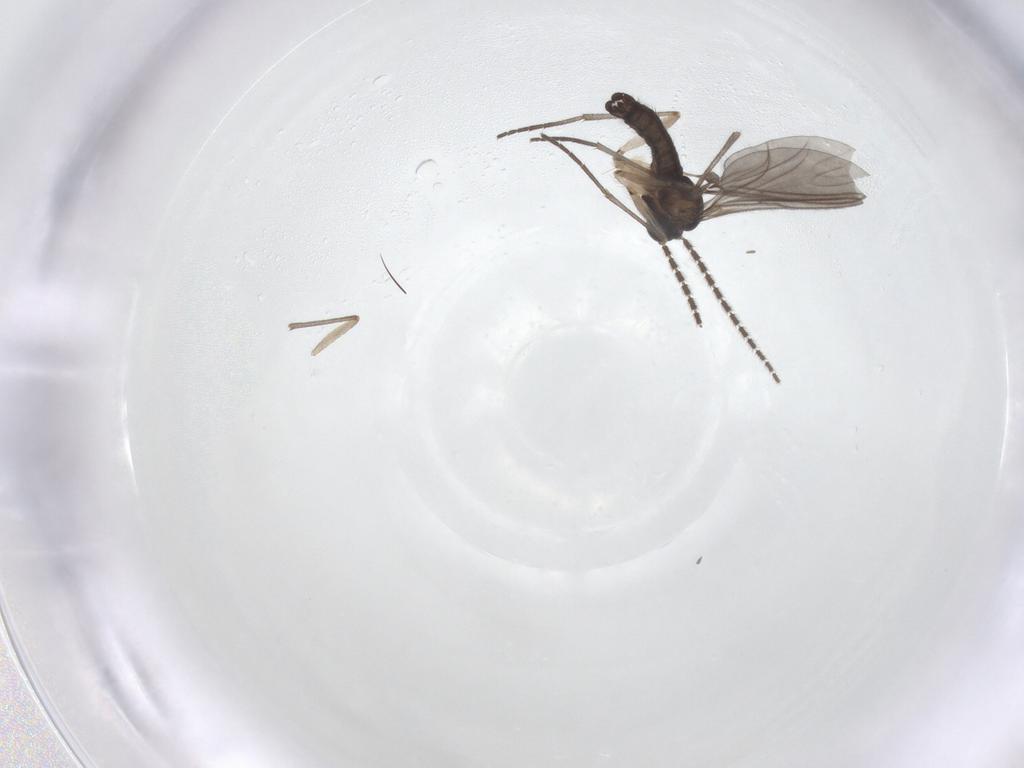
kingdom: Animalia
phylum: Arthropoda
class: Insecta
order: Diptera
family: Sciaridae
